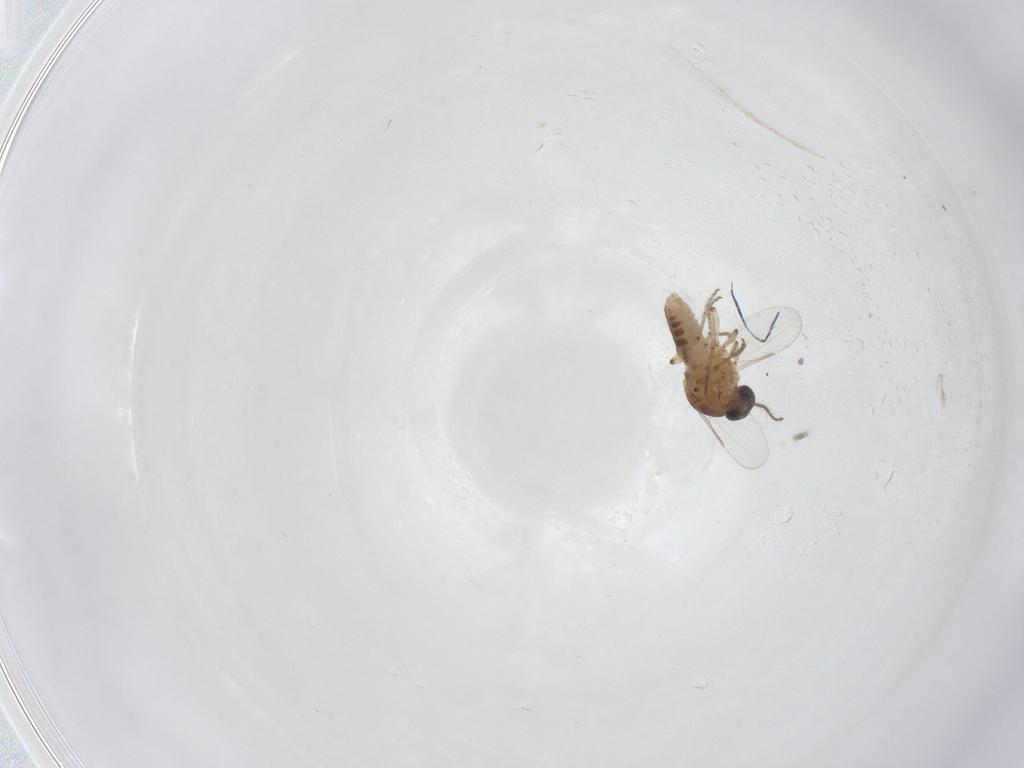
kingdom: Animalia
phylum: Arthropoda
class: Insecta
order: Diptera
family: Ceratopogonidae
